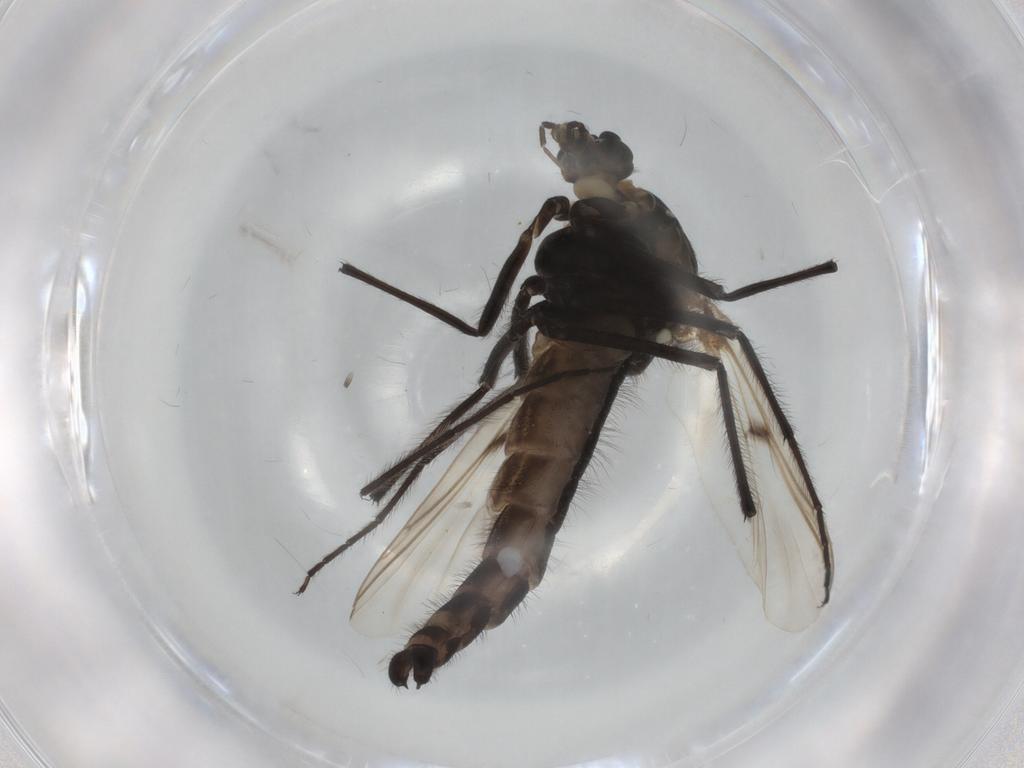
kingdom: Animalia
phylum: Arthropoda
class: Insecta
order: Diptera
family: Chironomidae
